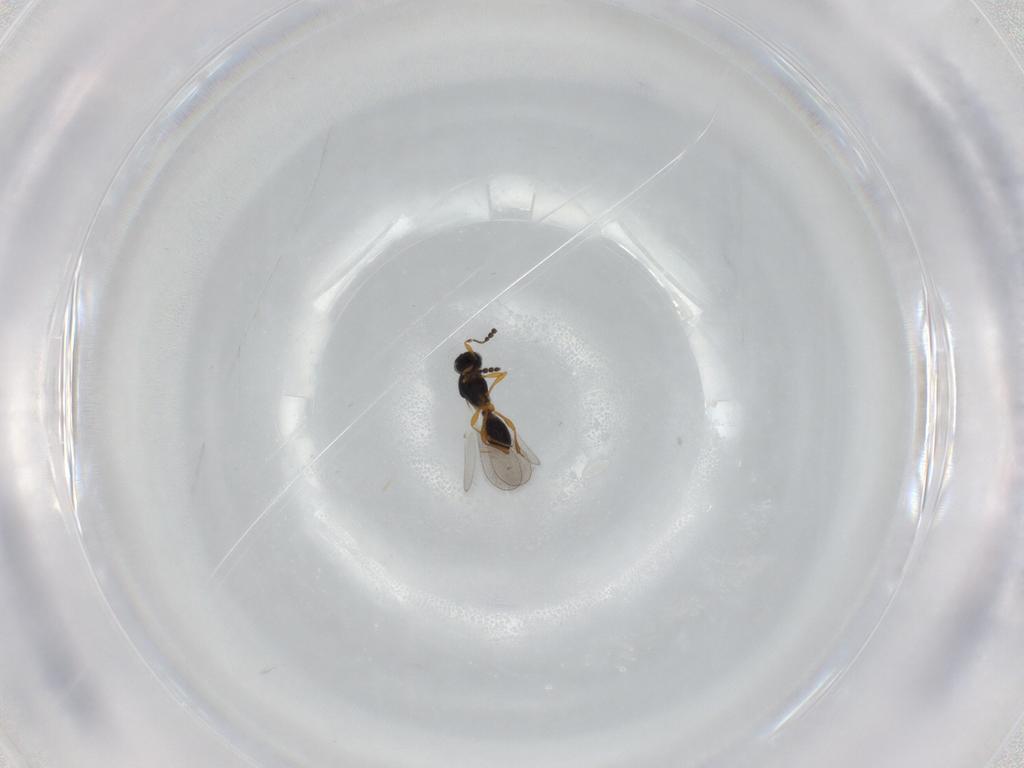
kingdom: Animalia
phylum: Arthropoda
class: Insecta
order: Hymenoptera
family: Platygastridae
